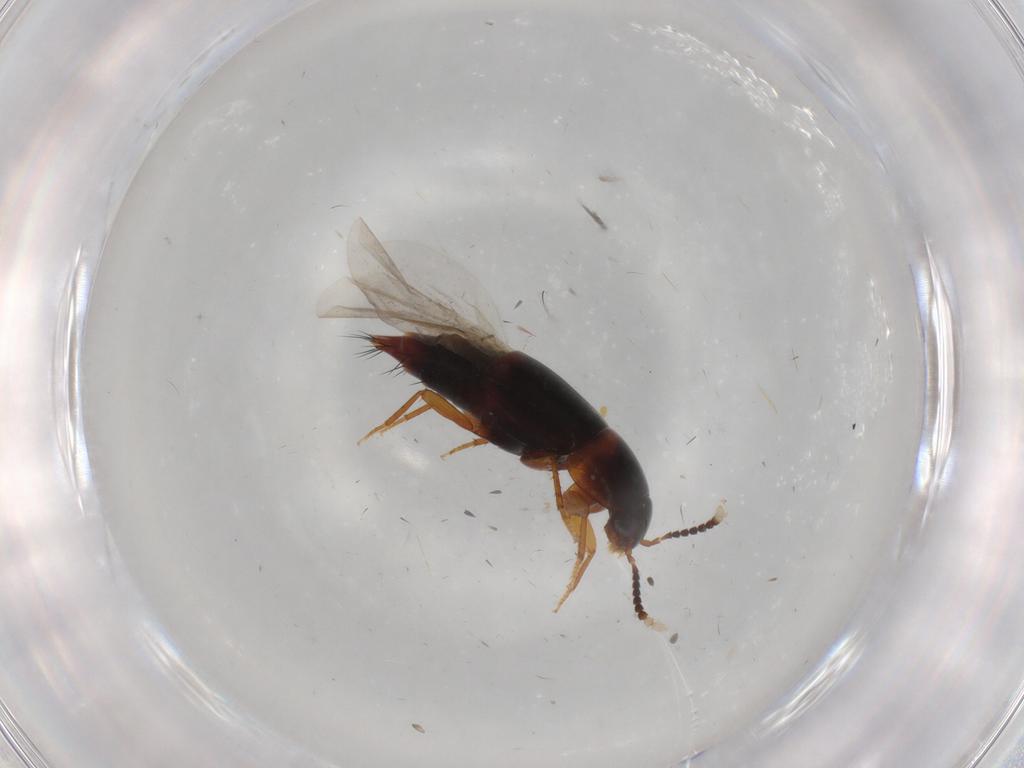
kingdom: Animalia
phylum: Arthropoda
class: Insecta
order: Coleoptera
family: Staphylinidae
